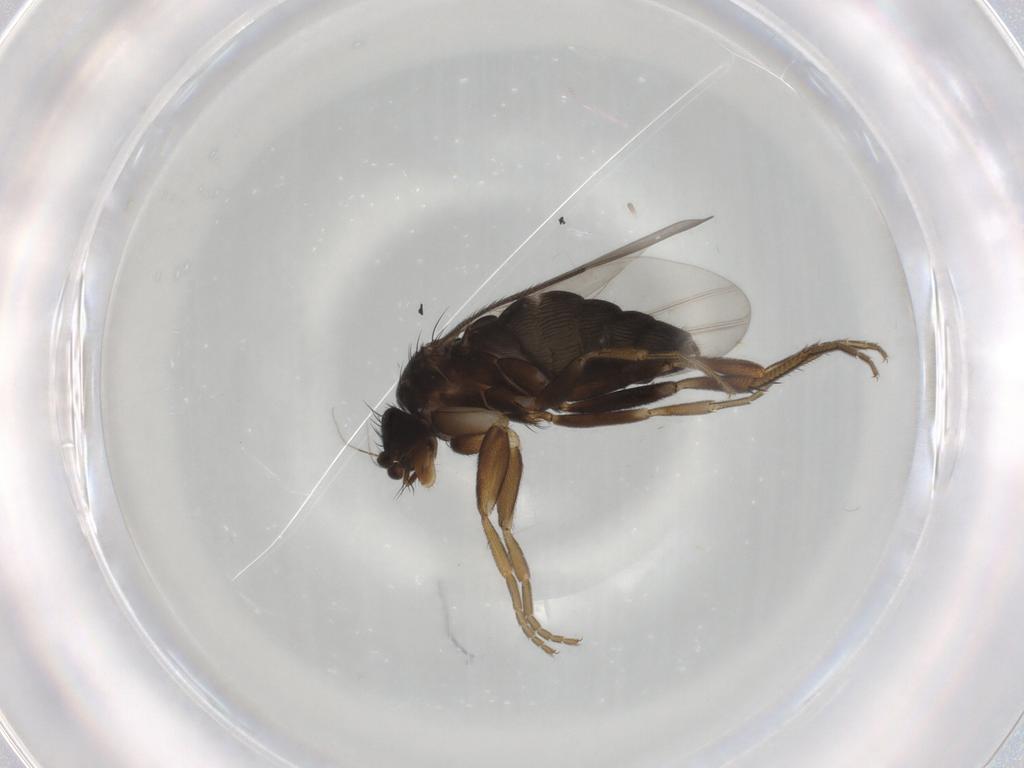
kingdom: Animalia
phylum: Arthropoda
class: Insecta
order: Diptera
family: Phoridae
